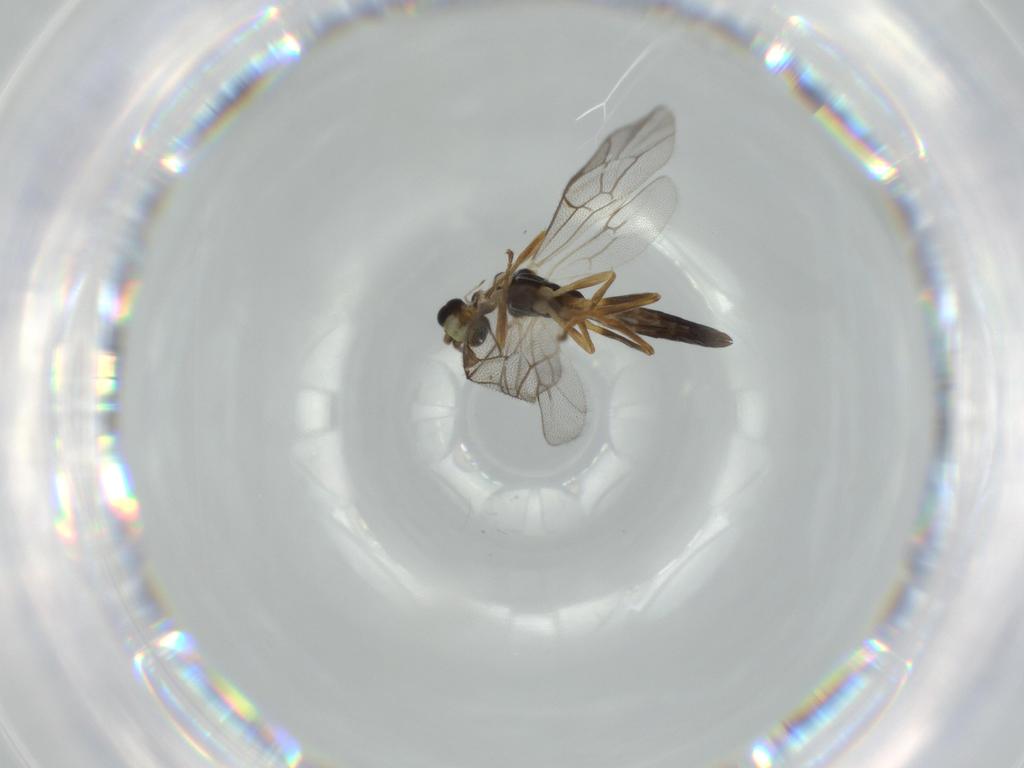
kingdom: Animalia
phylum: Arthropoda
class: Insecta
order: Hymenoptera
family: Ichneumonidae
